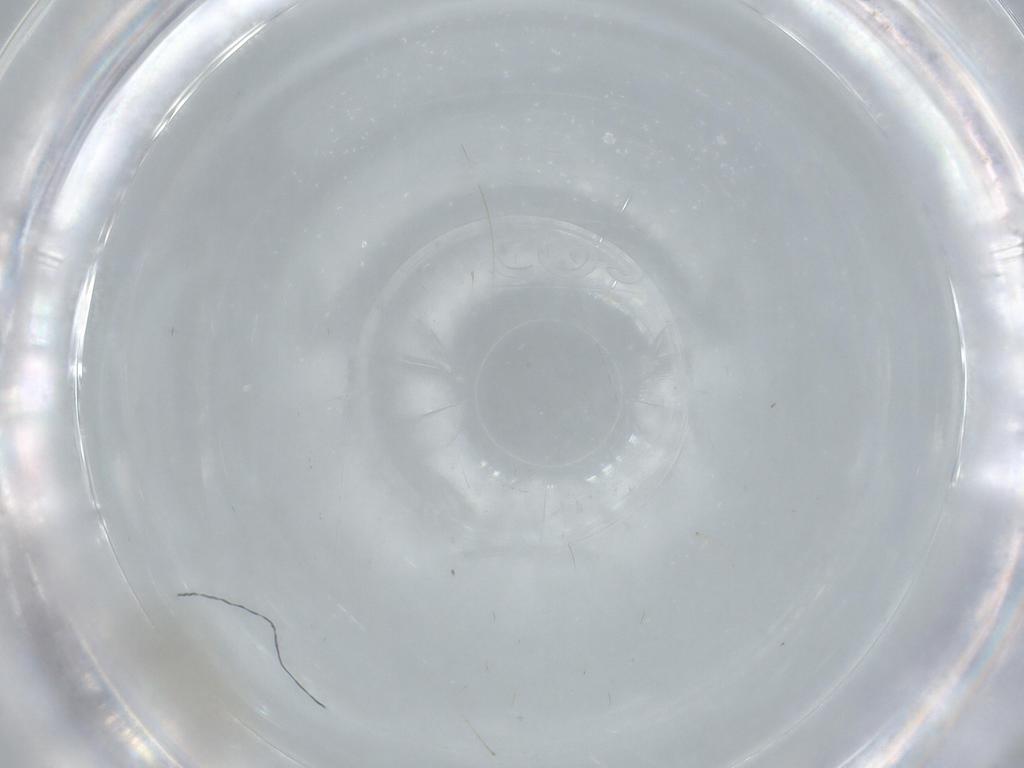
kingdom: Animalia
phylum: Arthropoda
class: Insecta
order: Diptera
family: Cecidomyiidae
